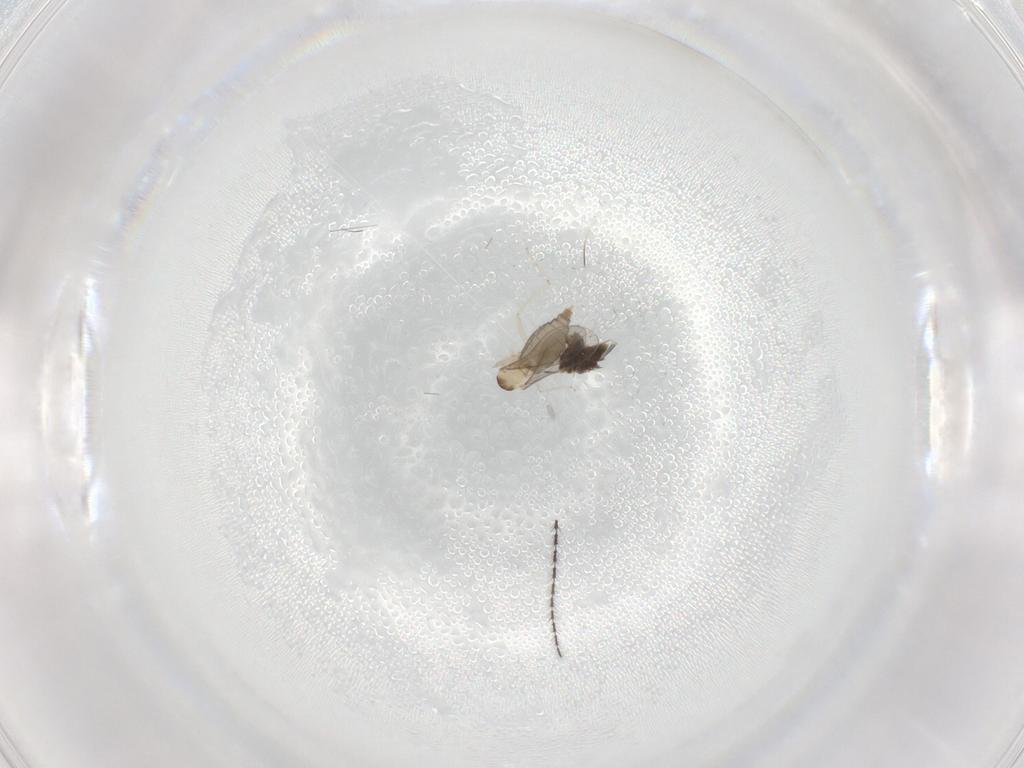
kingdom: Animalia
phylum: Arthropoda
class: Insecta
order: Diptera
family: Cecidomyiidae
